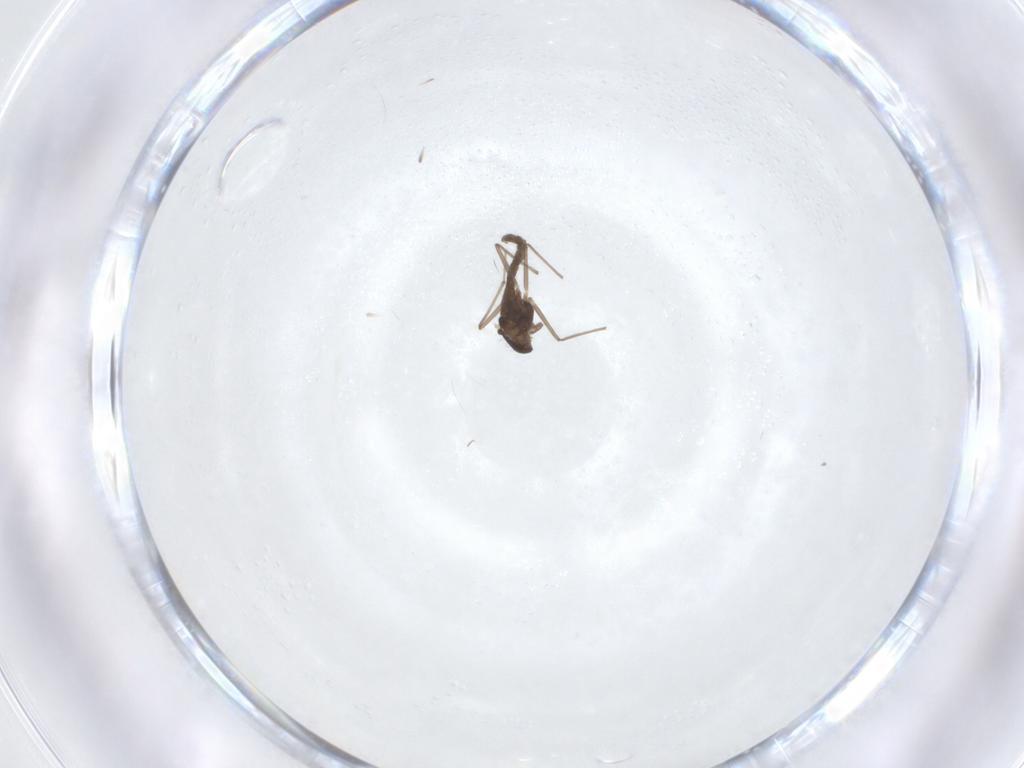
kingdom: Animalia
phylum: Arthropoda
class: Insecta
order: Diptera
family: Chironomidae
